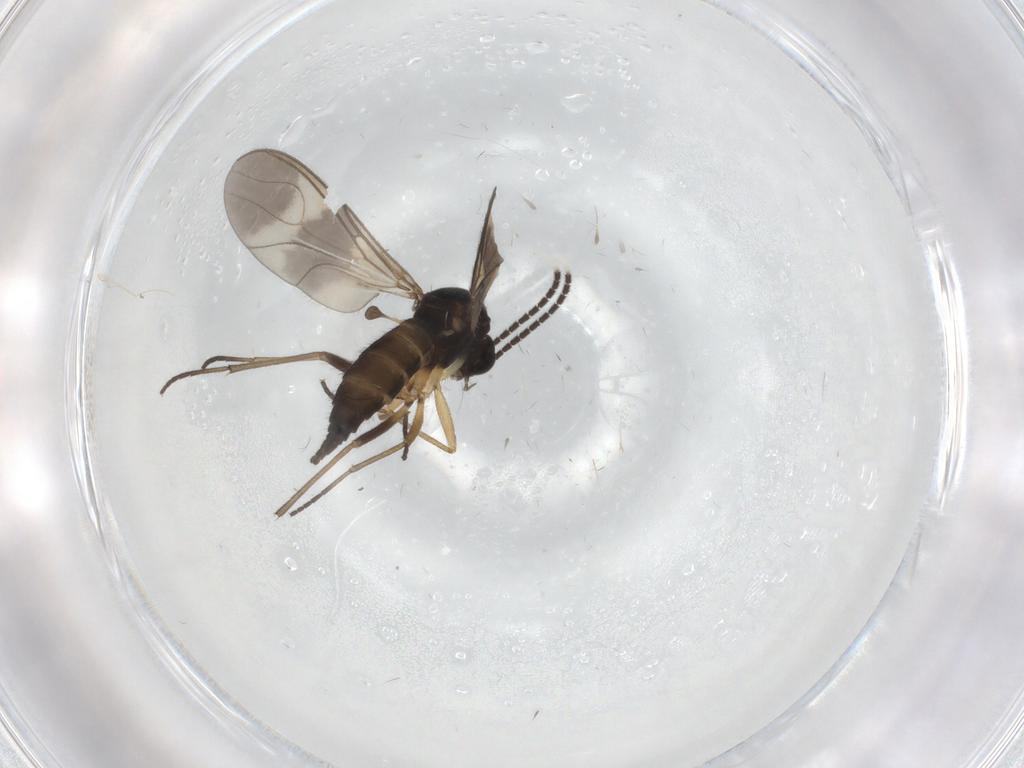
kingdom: Animalia
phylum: Arthropoda
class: Insecta
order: Diptera
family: Sciaridae
